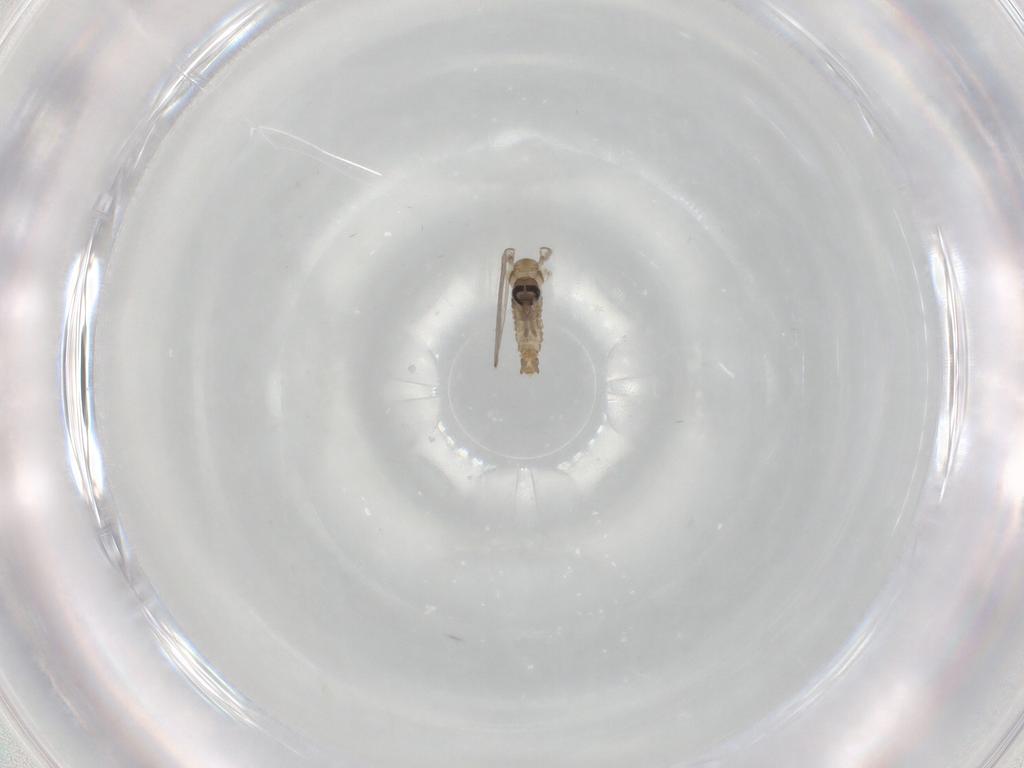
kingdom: Animalia
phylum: Arthropoda
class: Insecta
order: Diptera
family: Psychodidae
